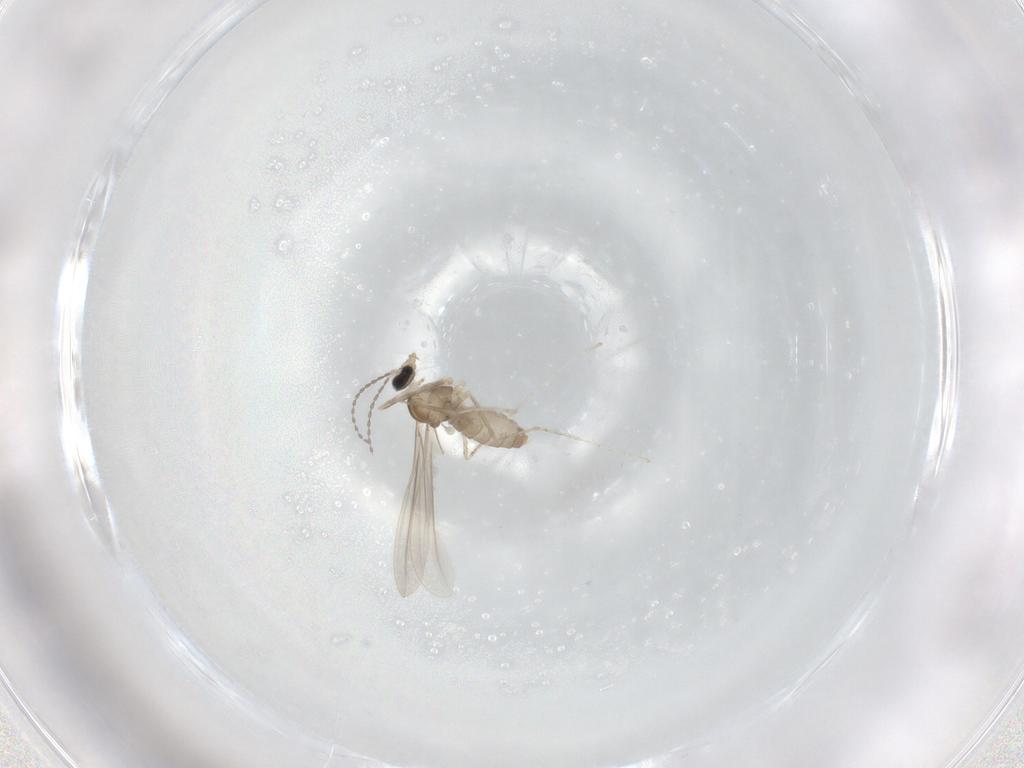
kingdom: Animalia
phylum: Arthropoda
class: Insecta
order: Diptera
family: Cecidomyiidae
